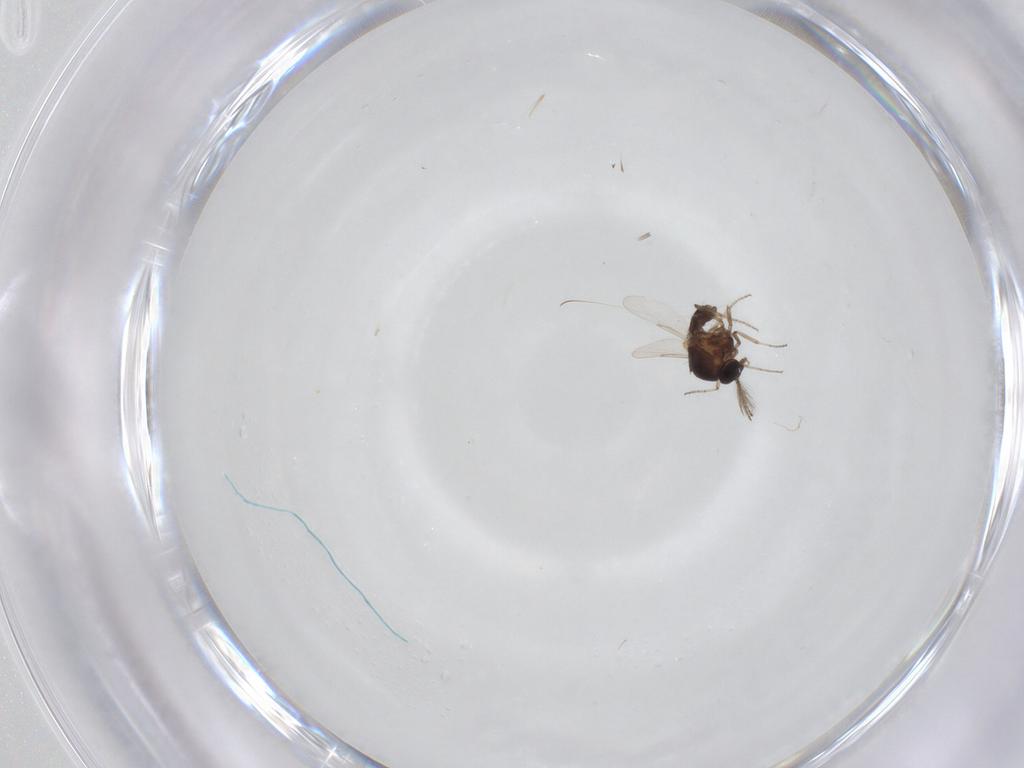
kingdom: Animalia
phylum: Arthropoda
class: Insecta
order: Diptera
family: Ceratopogonidae
